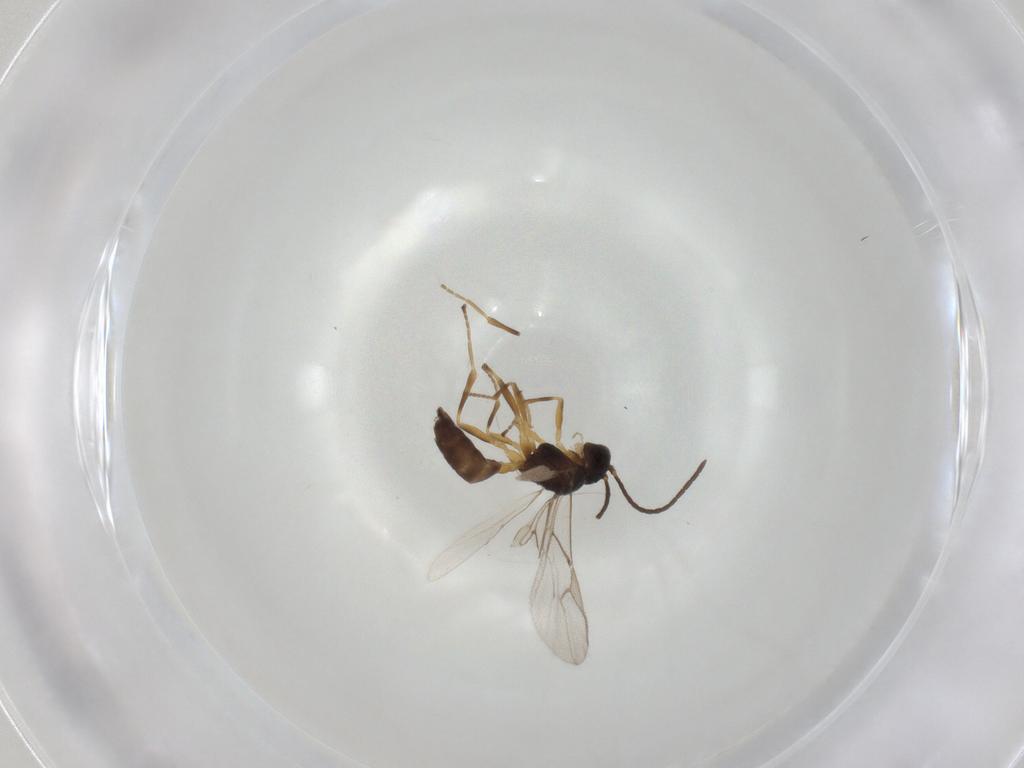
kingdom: Animalia
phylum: Arthropoda
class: Insecta
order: Hymenoptera
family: Braconidae
